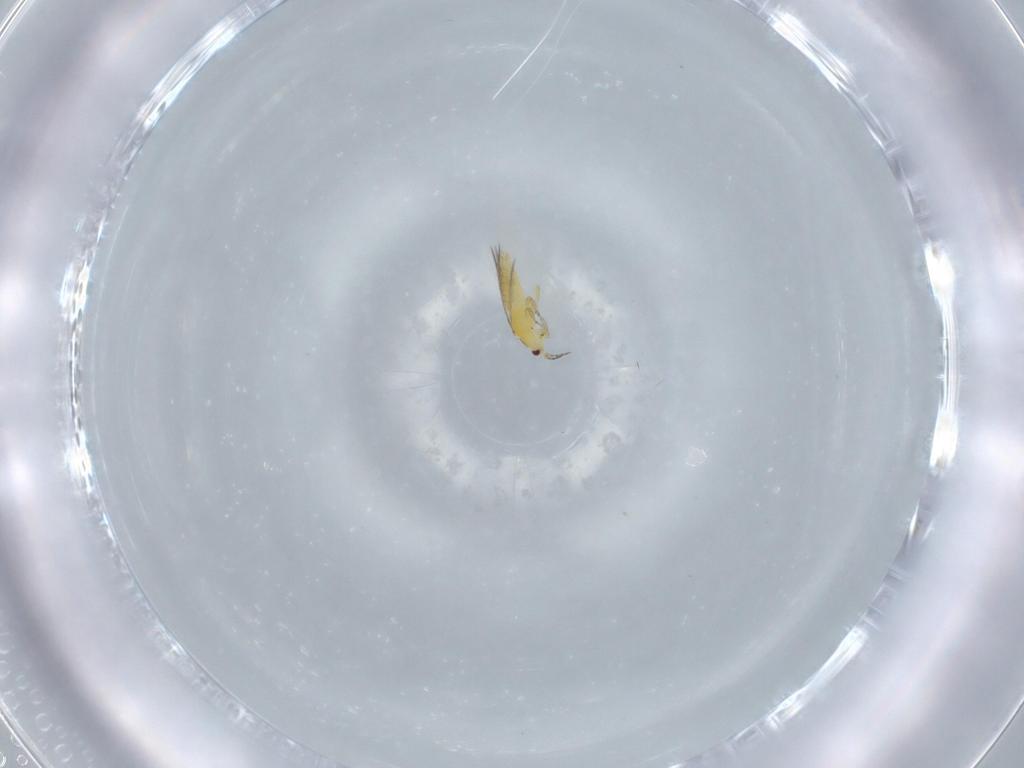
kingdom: Animalia
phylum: Arthropoda
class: Insecta
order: Thysanoptera
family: Thripidae
